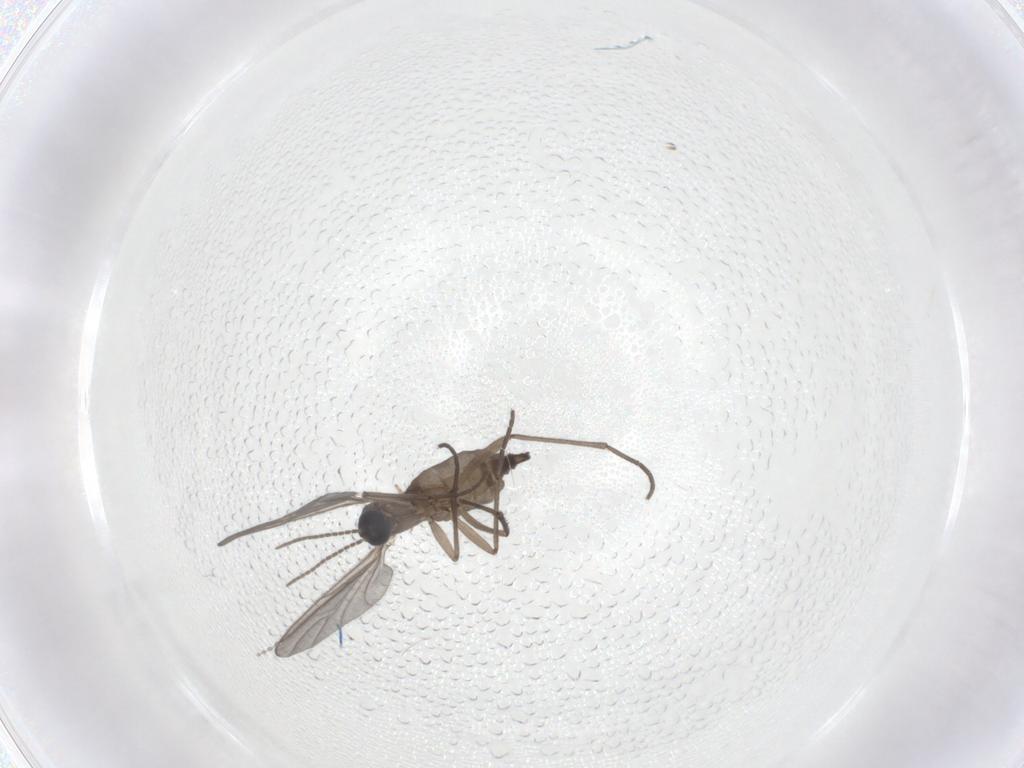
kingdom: Animalia
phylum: Arthropoda
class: Insecta
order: Diptera
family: Sciaridae
